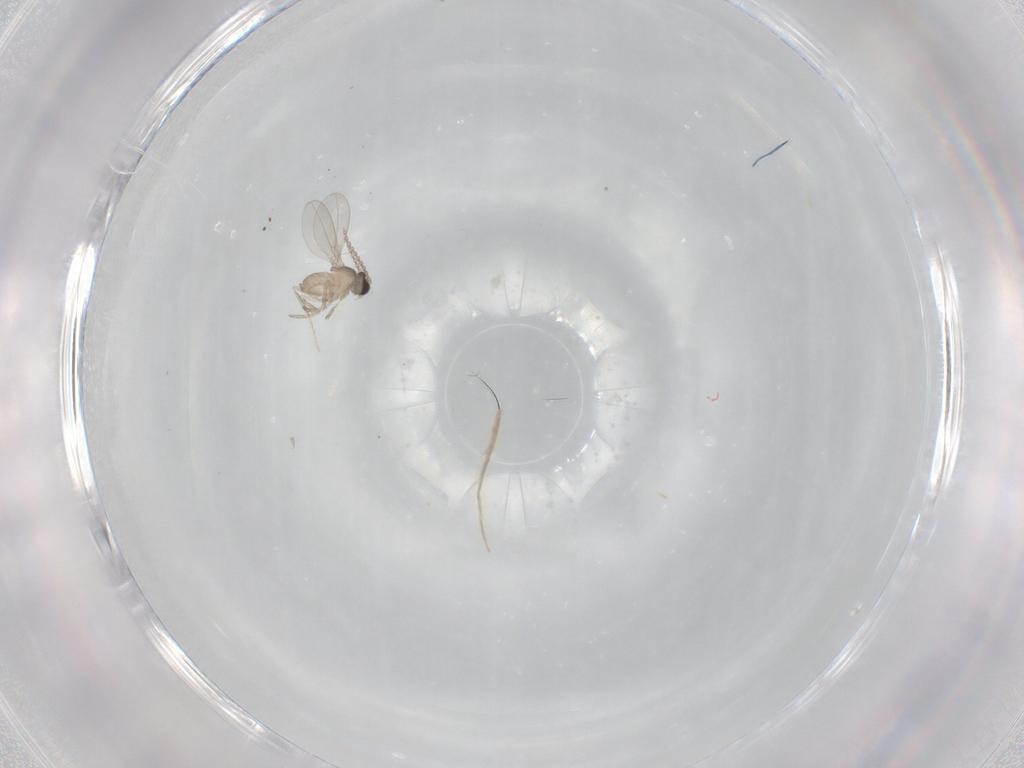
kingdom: Animalia
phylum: Arthropoda
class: Insecta
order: Diptera
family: Cecidomyiidae
